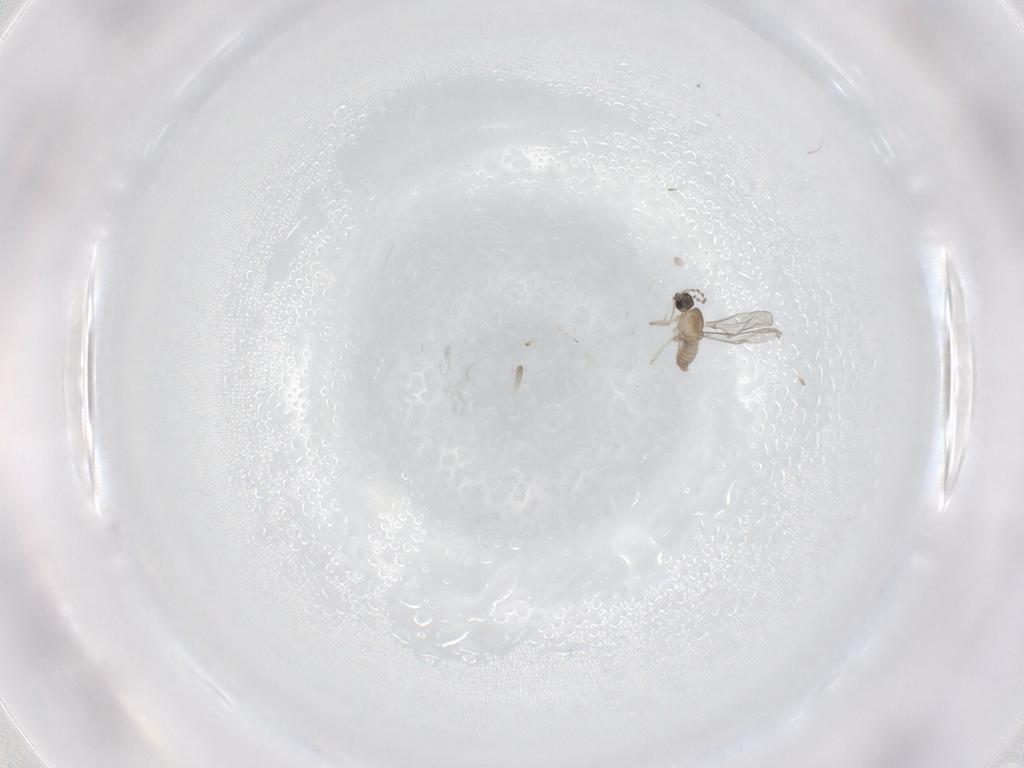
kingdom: Animalia
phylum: Arthropoda
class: Insecta
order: Diptera
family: Cecidomyiidae
